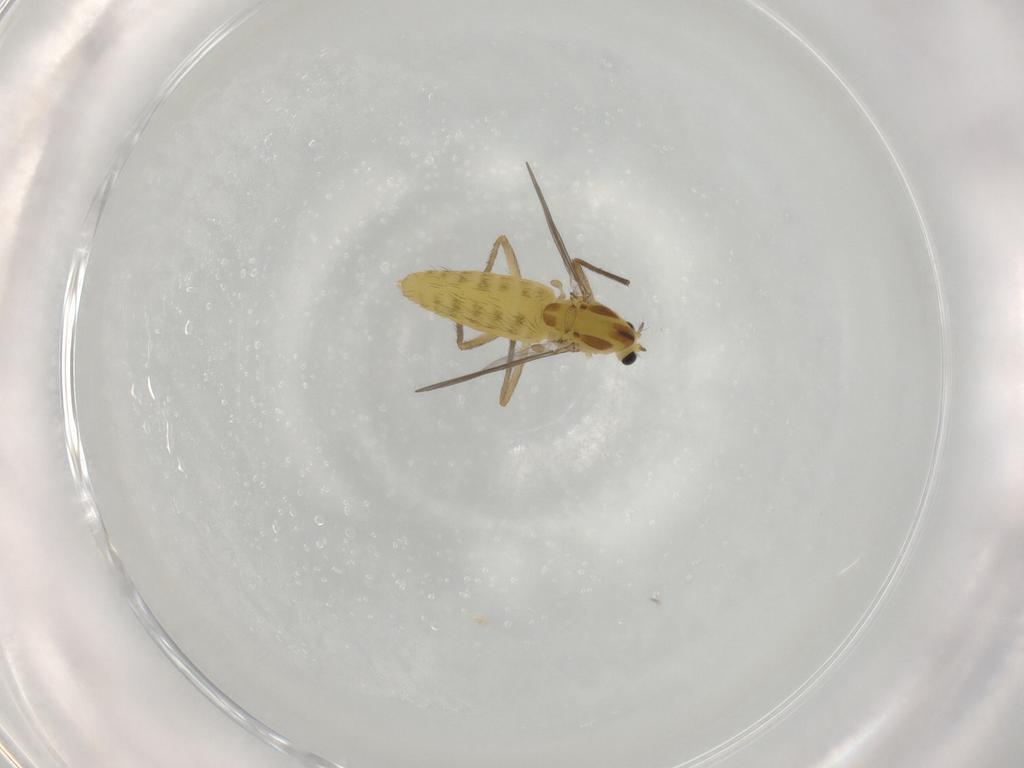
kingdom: Animalia
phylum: Arthropoda
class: Insecta
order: Diptera
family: Chironomidae
